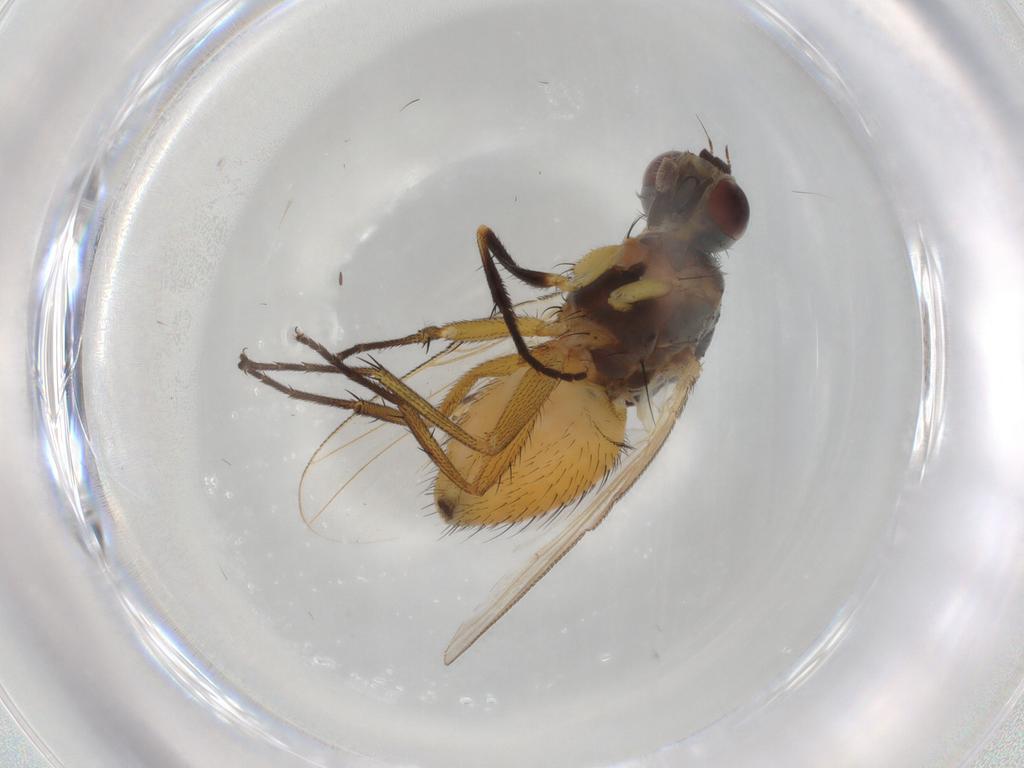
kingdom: Animalia
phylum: Arthropoda
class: Insecta
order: Diptera
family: Muscidae
